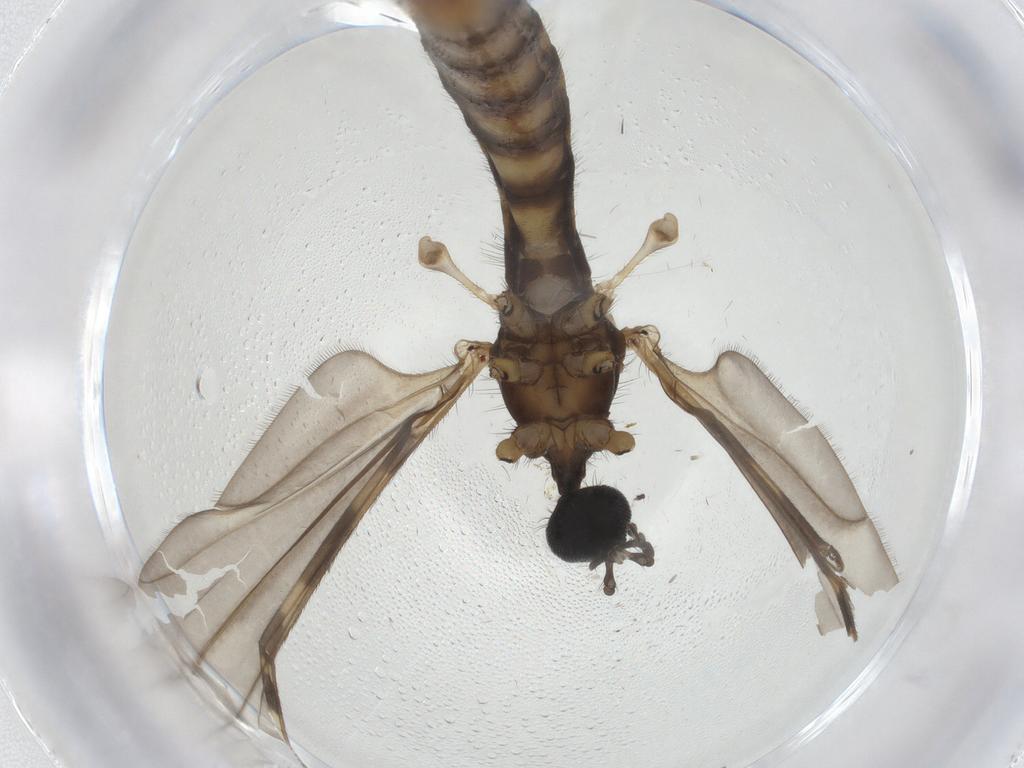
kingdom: Animalia
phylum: Arthropoda
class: Insecta
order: Diptera
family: Limoniidae
